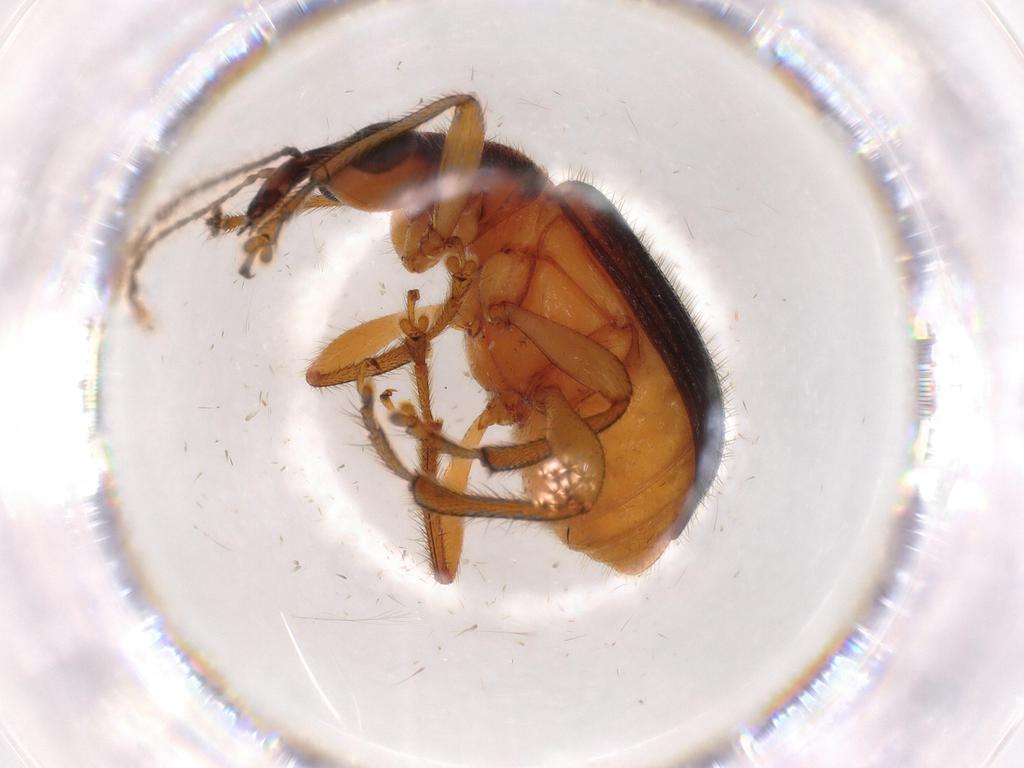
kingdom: Animalia
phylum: Arthropoda
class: Insecta
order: Coleoptera
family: Attelabidae
